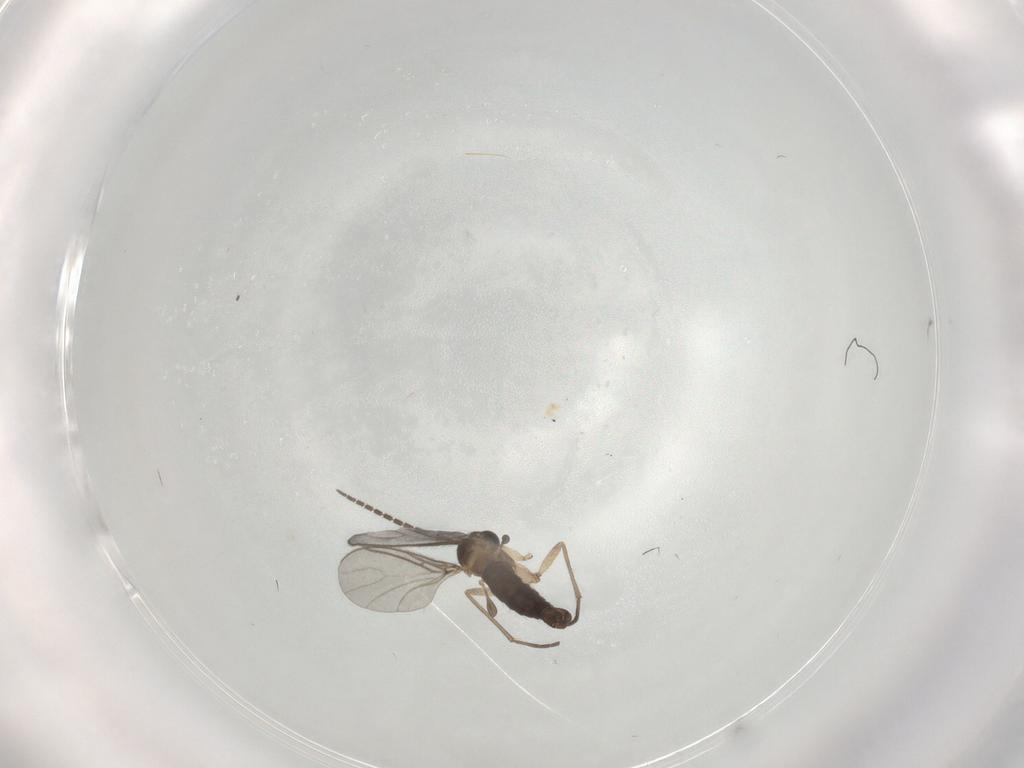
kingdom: Animalia
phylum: Arthropoda
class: Insecta
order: Diptera
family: Sciaridae
